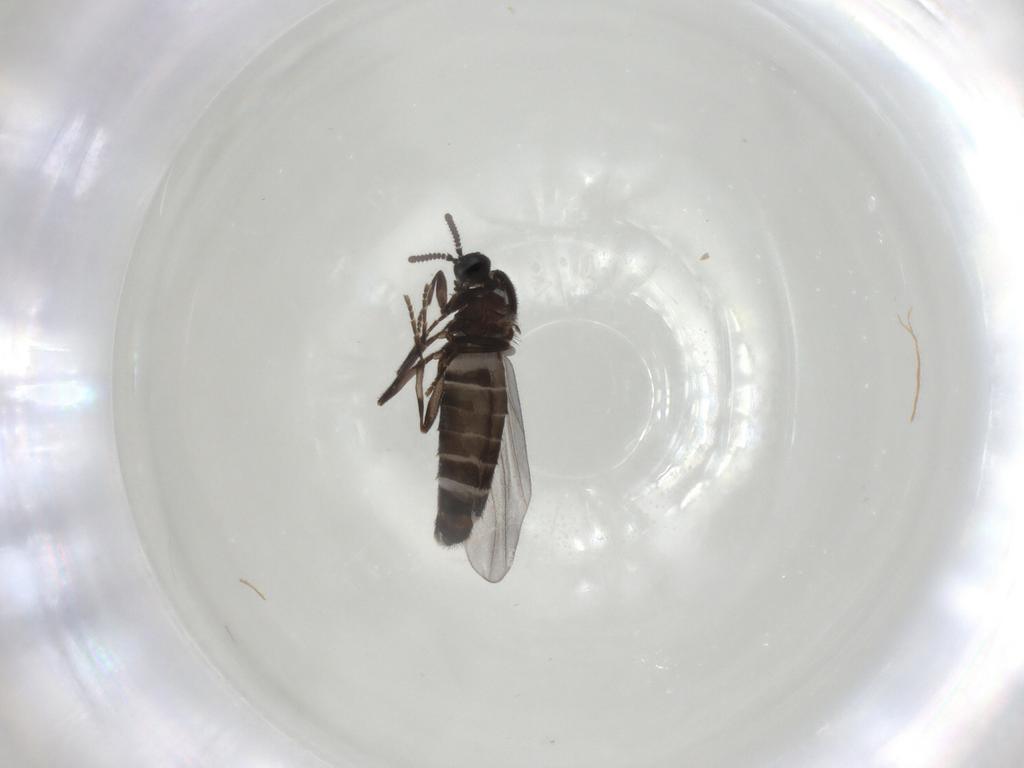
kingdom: Animalia
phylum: Arthropoda
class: Insecta
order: Diptera
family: Scatopsidae
